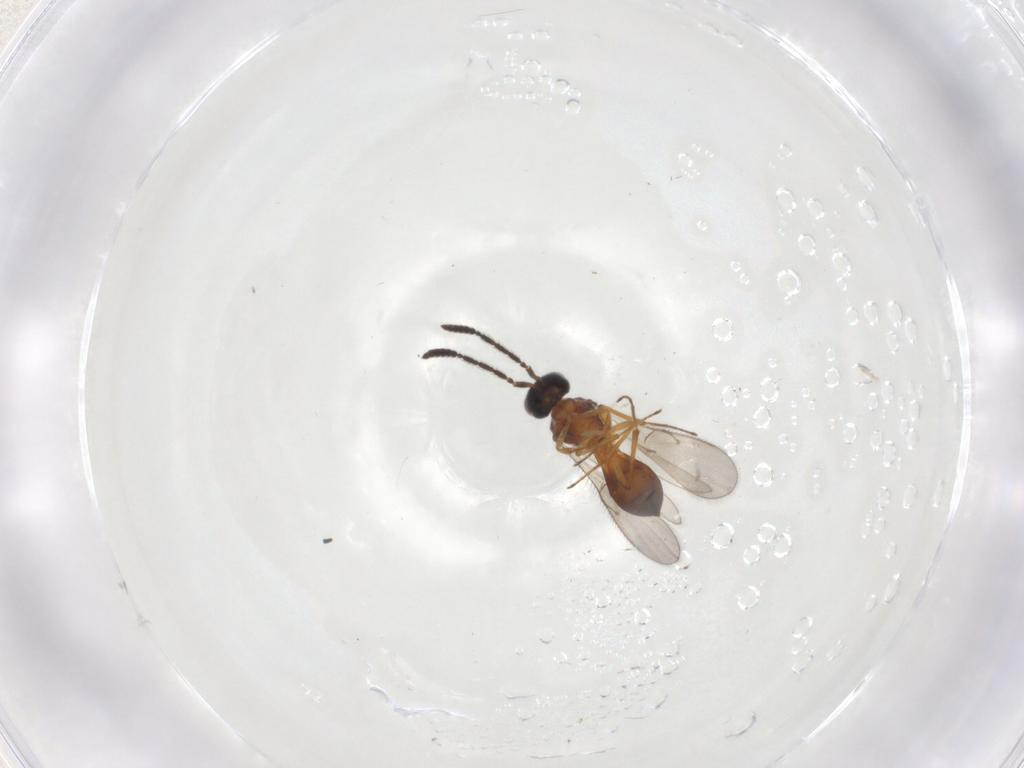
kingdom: Animalia
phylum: Arthropoda
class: Insecta
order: Hymenoptera
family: Scelionidae
